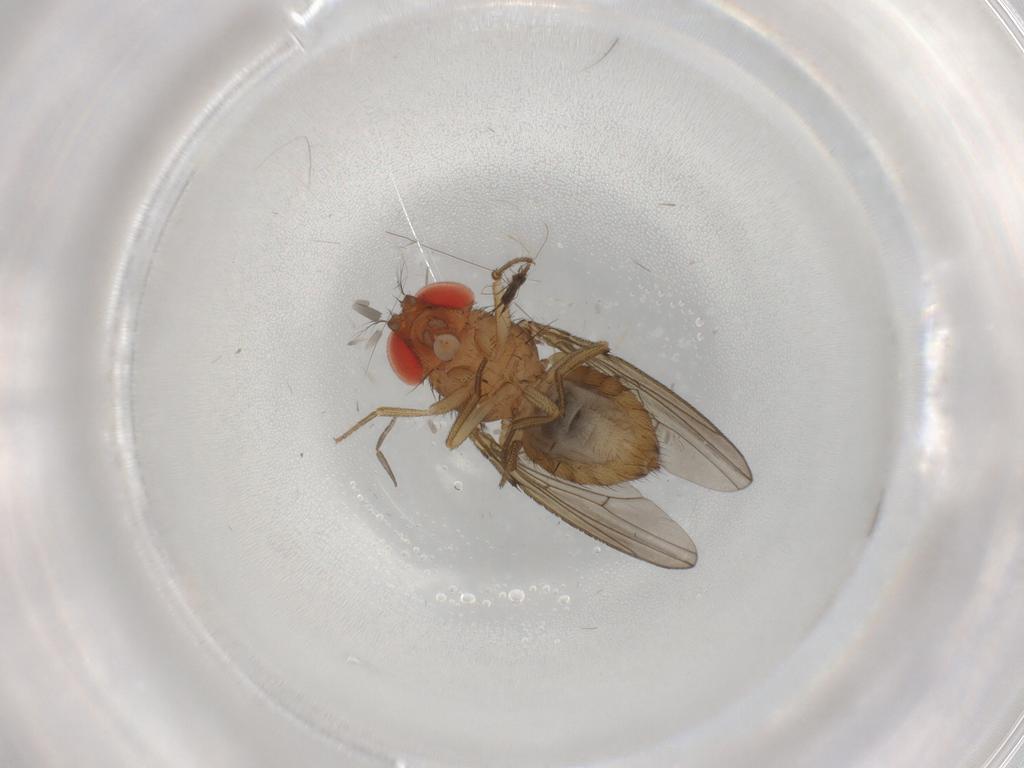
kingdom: Animalia
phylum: Arthropoda
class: Insecta
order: Diptera
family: Drosophilidae
